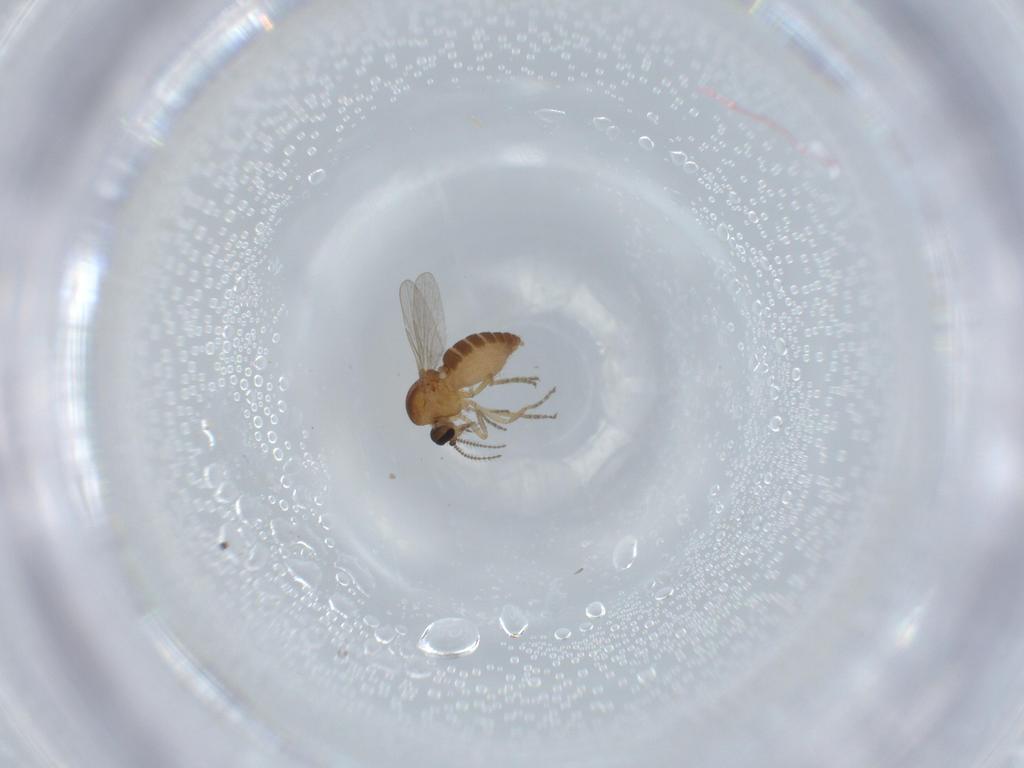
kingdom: Animalia
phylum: Arthropoda
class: Insecta
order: Diptera
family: Ceratopogonidae
